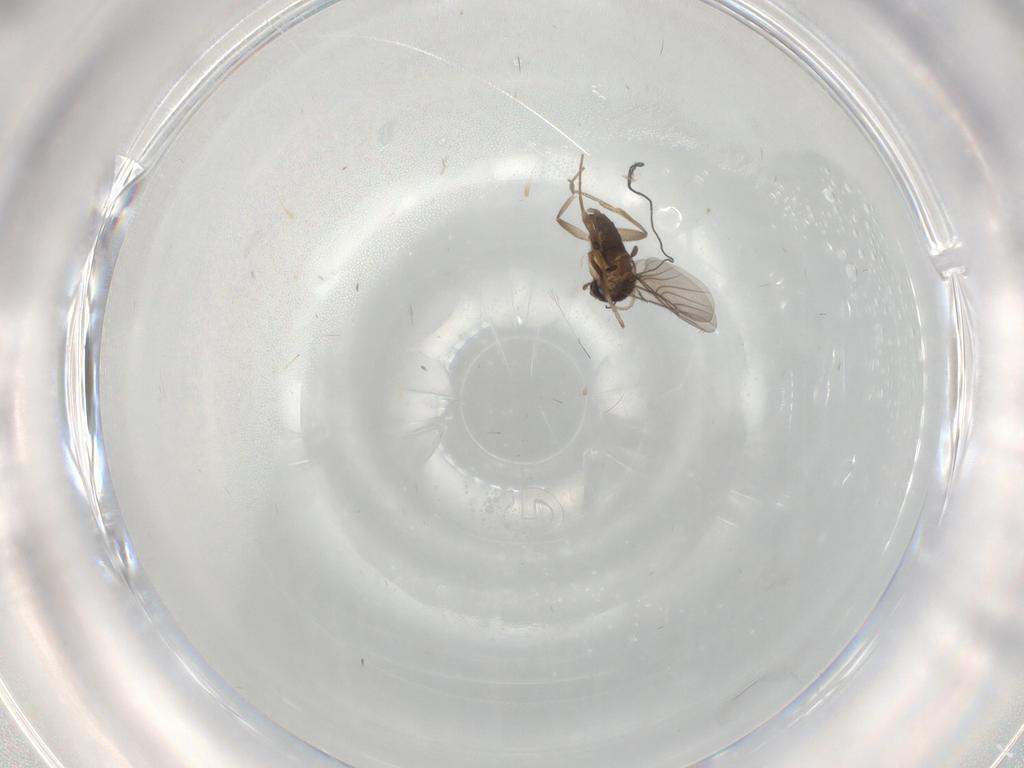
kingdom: Animalia
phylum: Arthropoda
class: Insecta
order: Diptera
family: Phoridae
